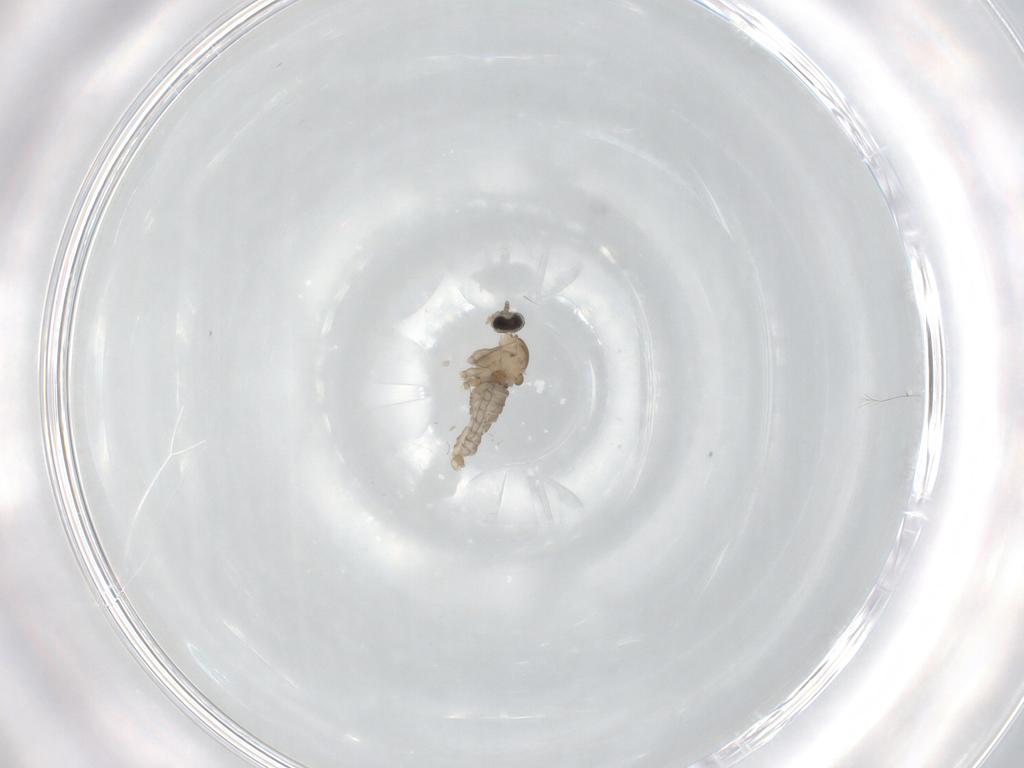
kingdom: Animalia
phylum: Arthropoda
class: Insecta
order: Diptera
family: Cecidomyiidae
